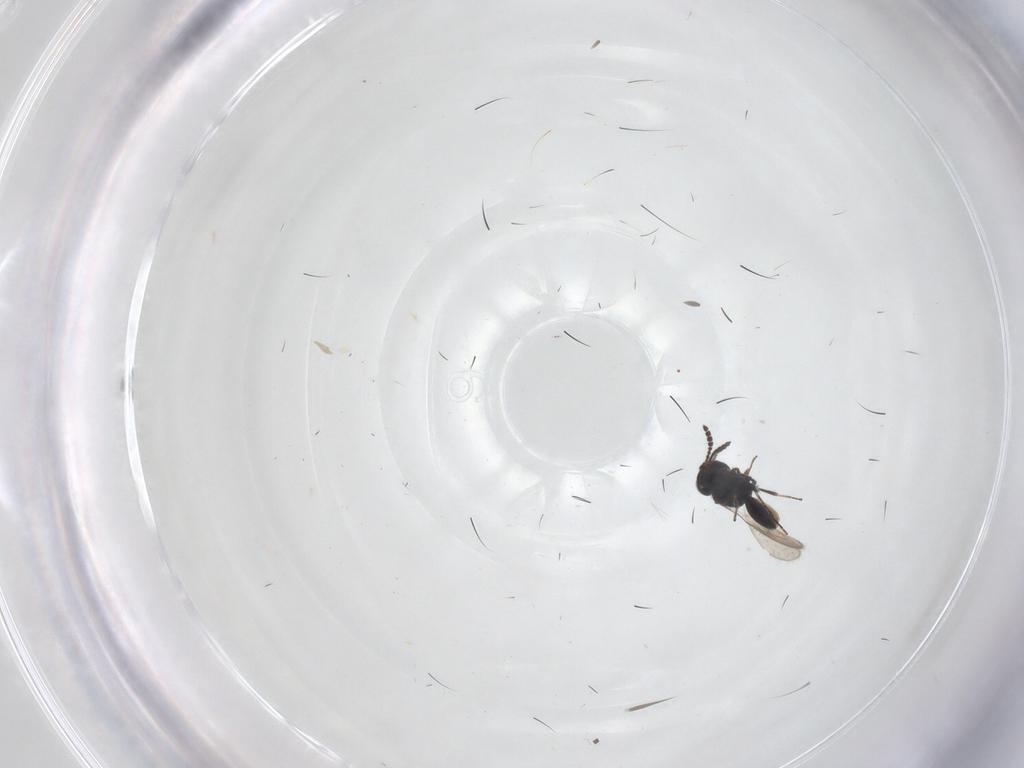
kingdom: Animalia
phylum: Arthropoda
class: Insecta
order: Hymenoptera
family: Scelionidae
